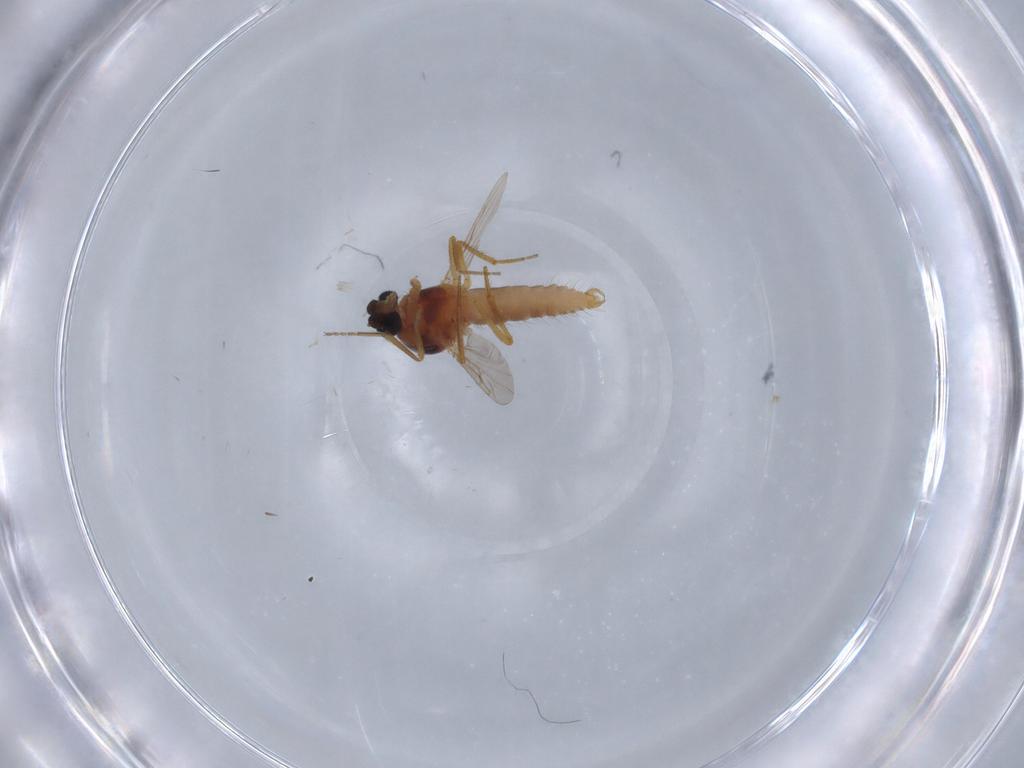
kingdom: Animalia
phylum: Arthropoda
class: Insecta
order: Diptera
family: Ceratopogonidae
